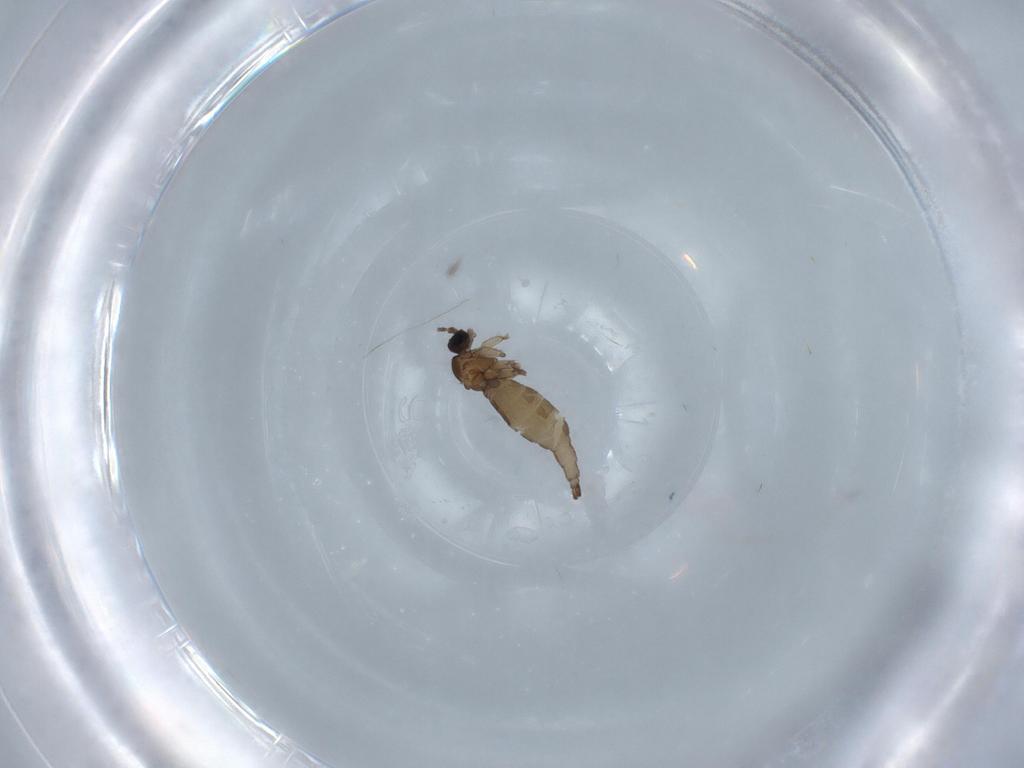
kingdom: Animalia
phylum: Arthropoda
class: Insecta
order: Diptera
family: Sciaridae
